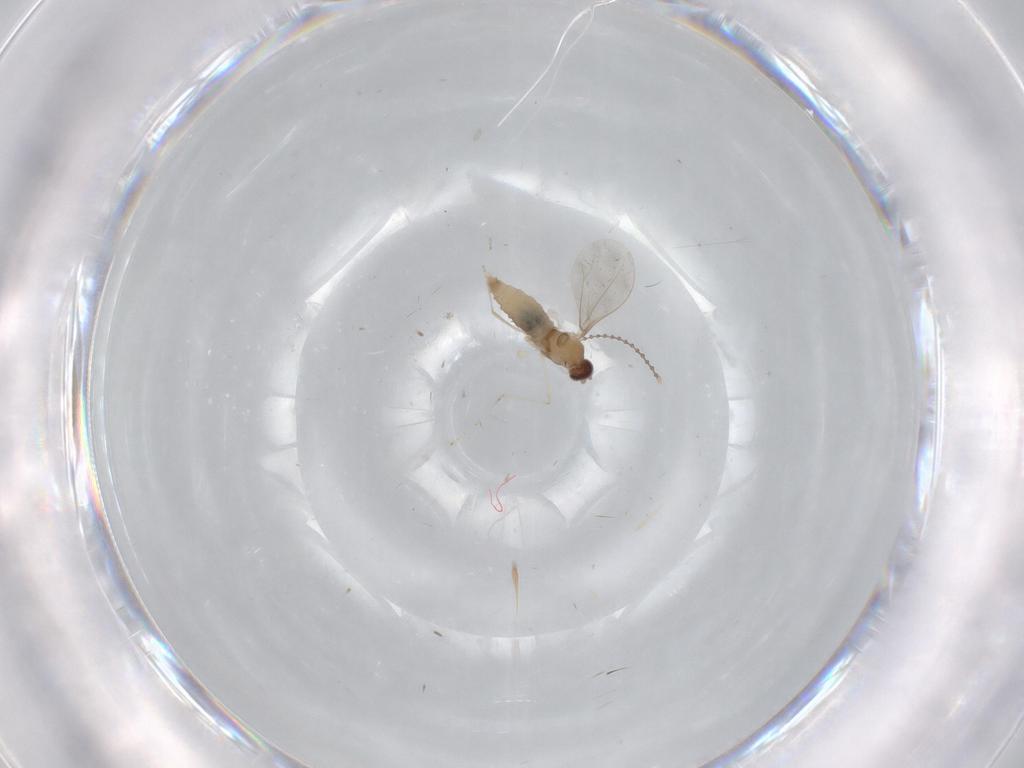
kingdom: Animalia
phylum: Arthropoda
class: Insecta
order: Diptera
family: Cecidomyiidae
